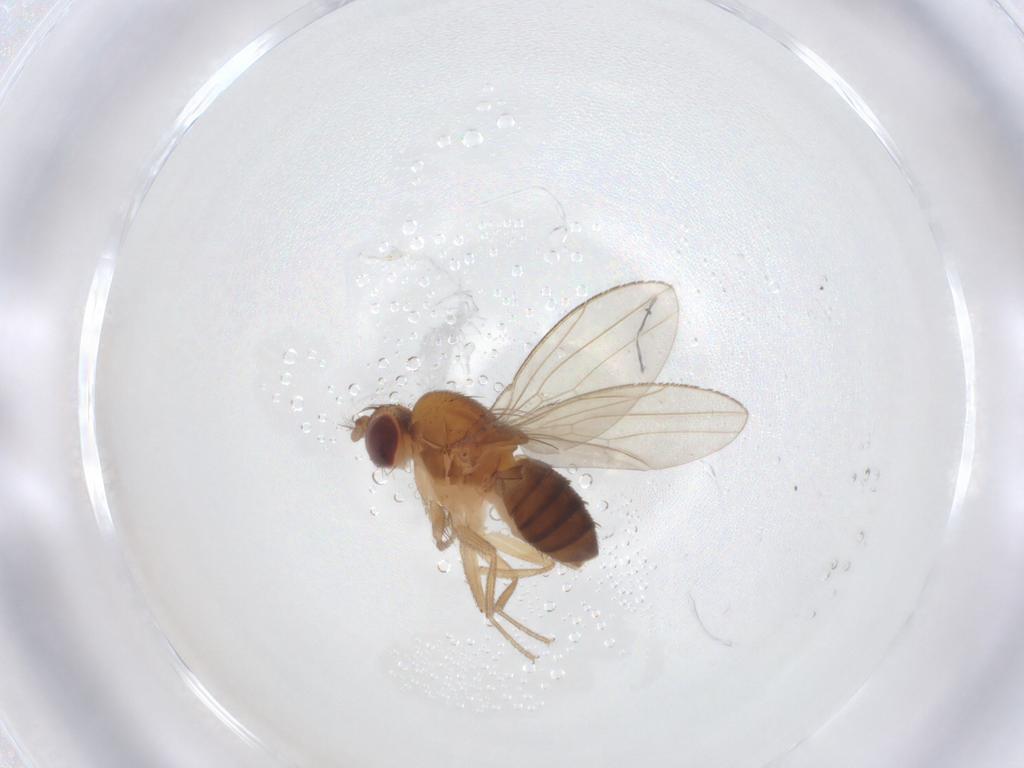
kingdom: Animalia
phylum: Arthropoda
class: Insecta
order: Diptera
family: Drosophilidae
